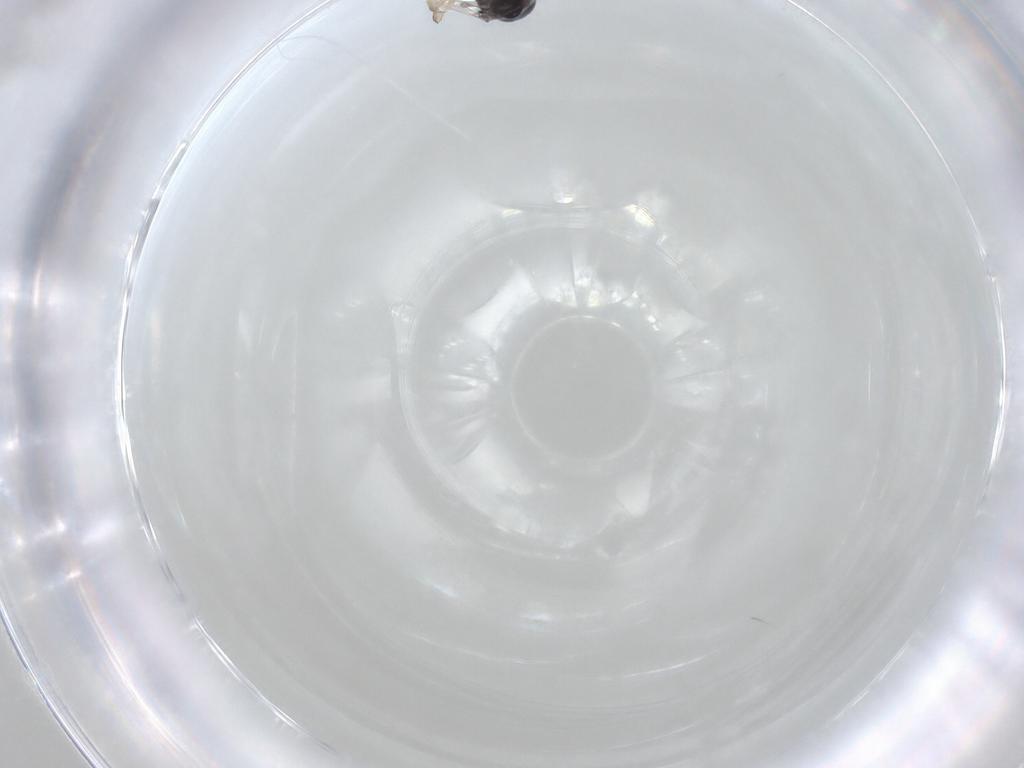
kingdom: Animalia
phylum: Arthropoda
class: Insecta
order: Diptera
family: Chironomidae
